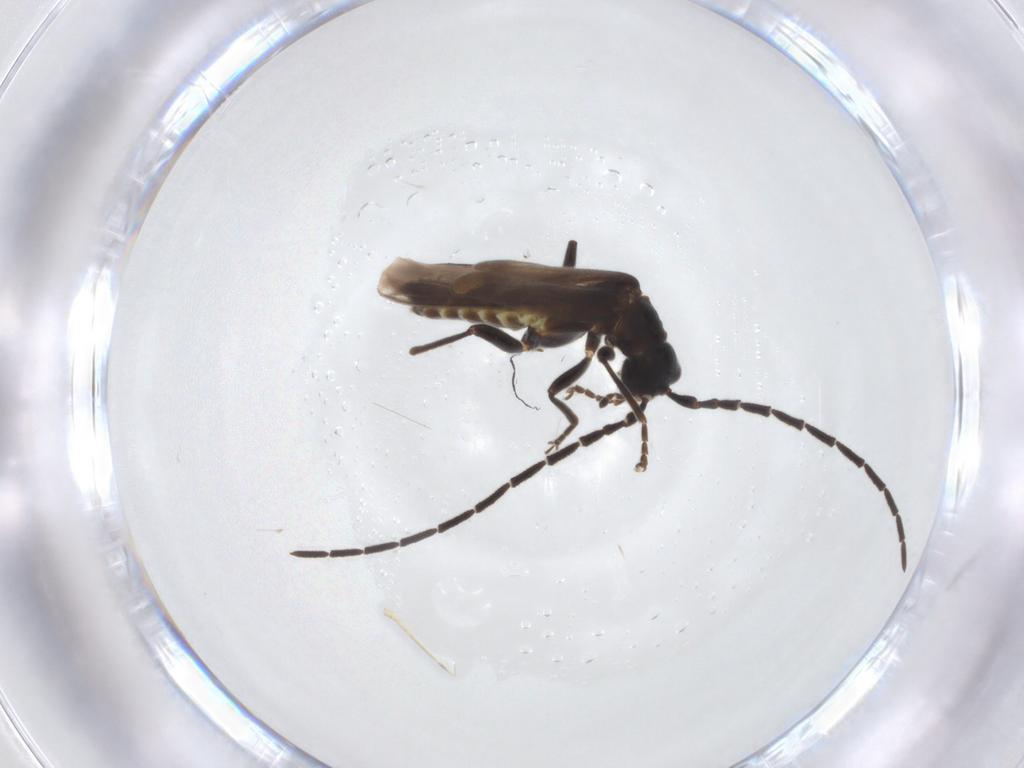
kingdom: Animalia
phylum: Arthropoda
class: Insecta
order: Coleoptera
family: Cantharidae
